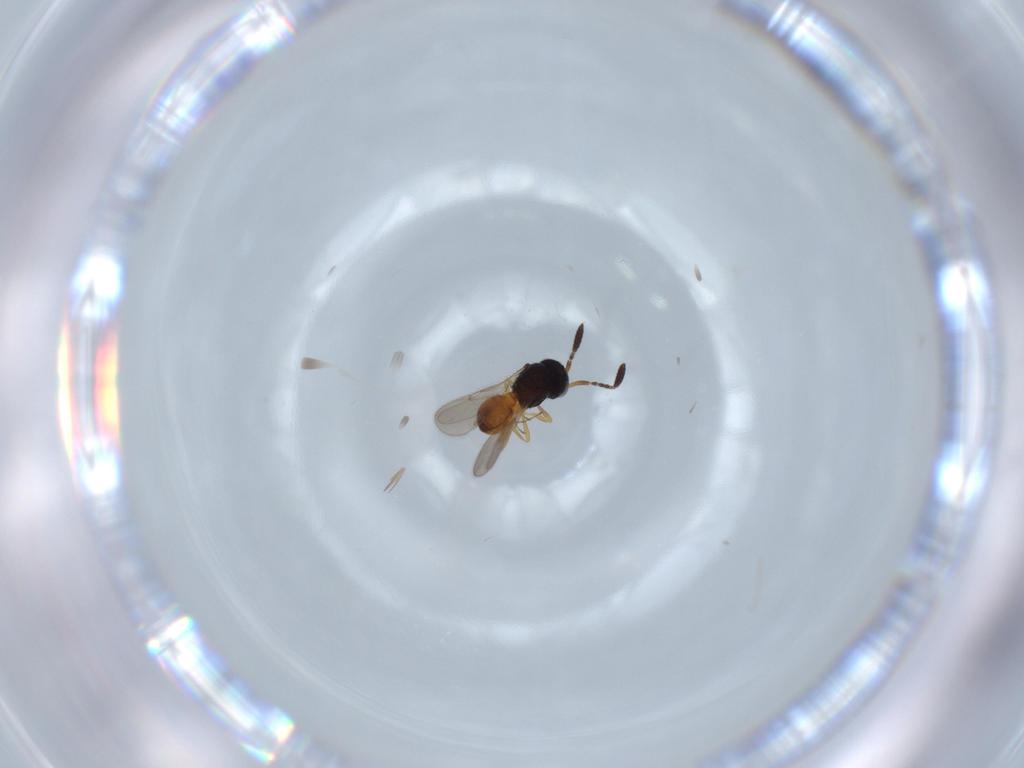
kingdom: Animalia
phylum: Arthropoda
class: Insecta
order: Hymenoptera
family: Scelionidae
